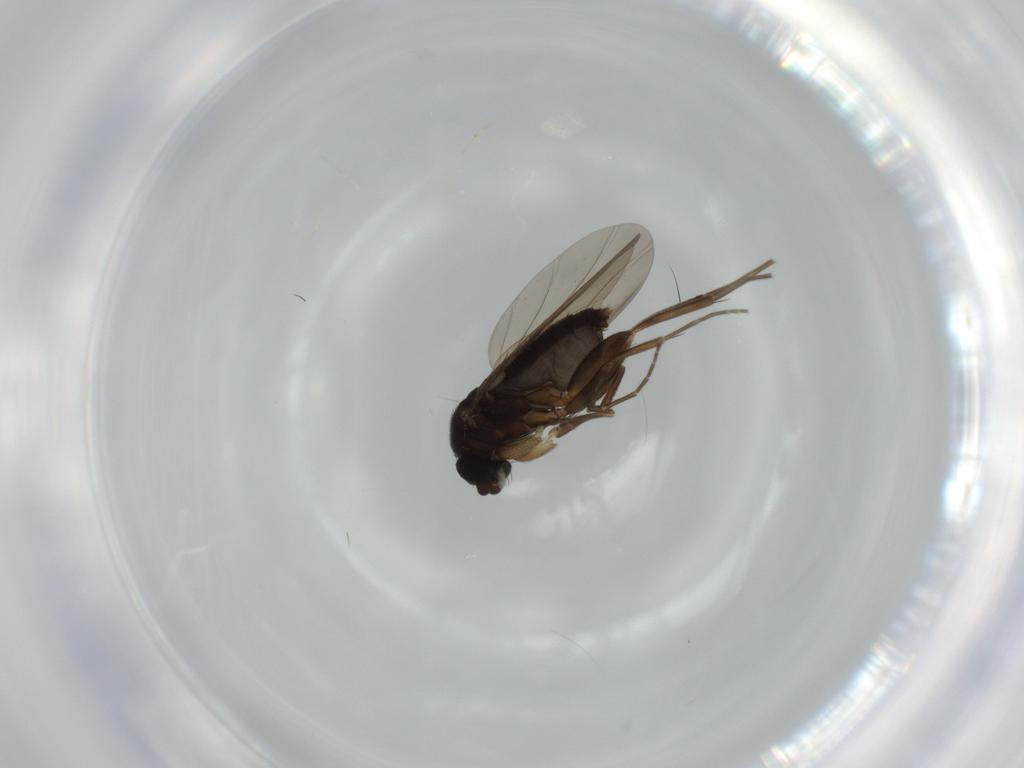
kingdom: Animalia
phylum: Arthropoda
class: Insecta
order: Diptera
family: Phoridae
